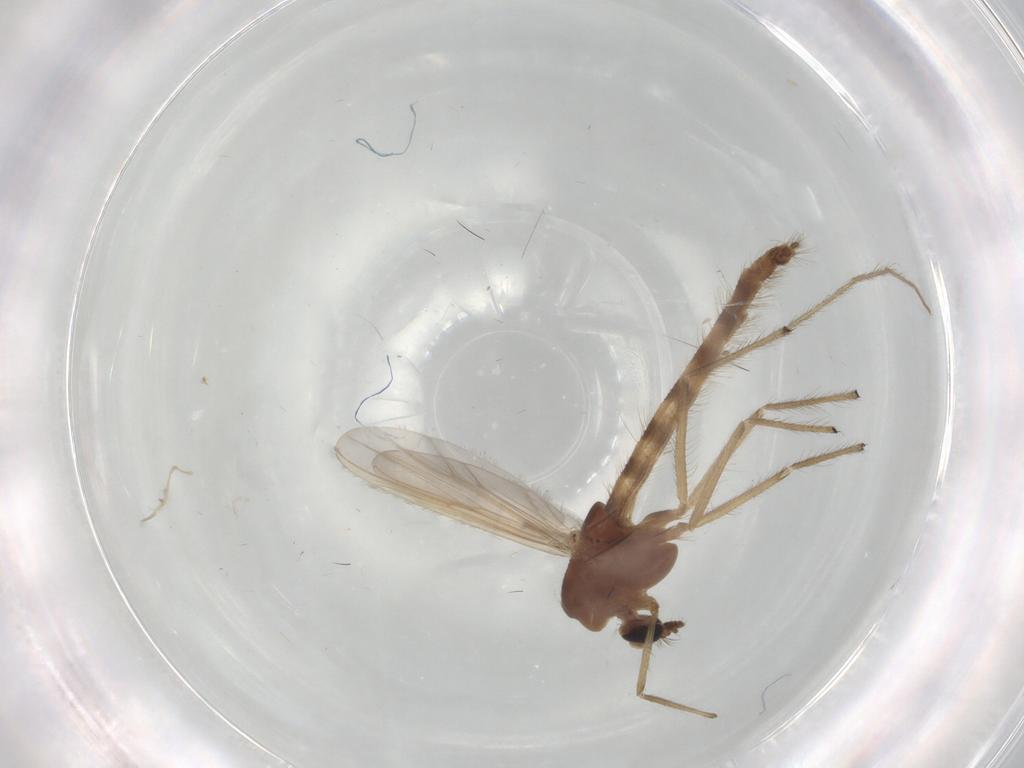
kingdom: Animalia
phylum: Arthropoda
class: Insecta
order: Diptera
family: Chironomidae
